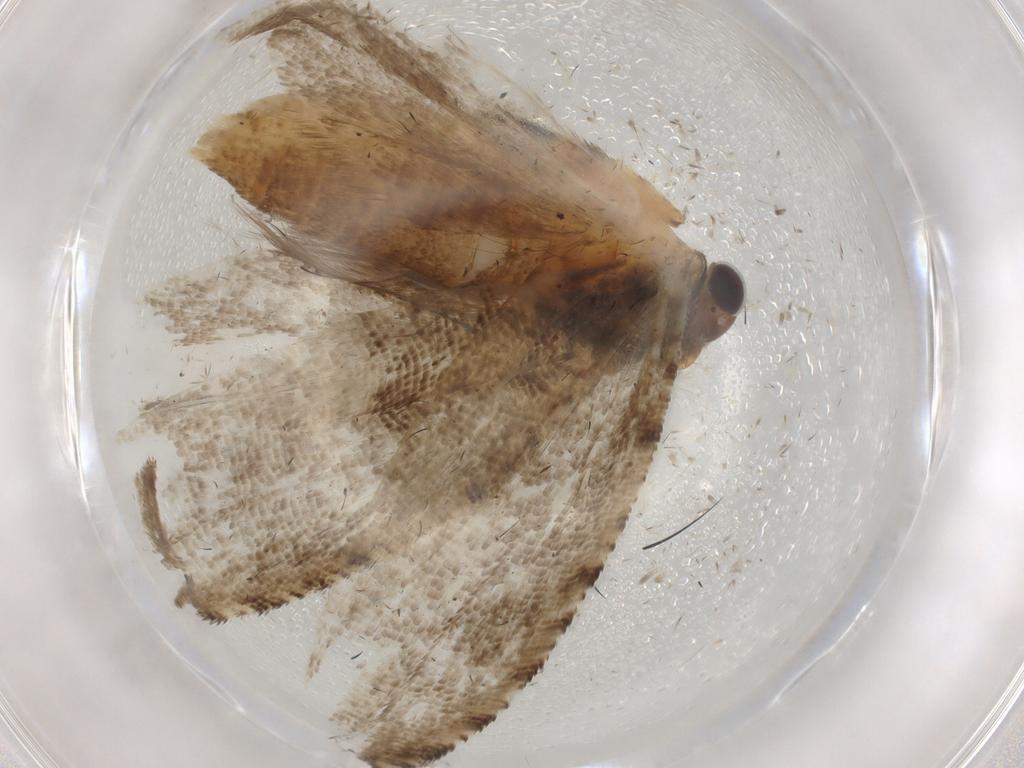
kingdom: Animalia
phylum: Arthropoda
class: Insecta
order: Lepidoptera
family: Tortricidae
